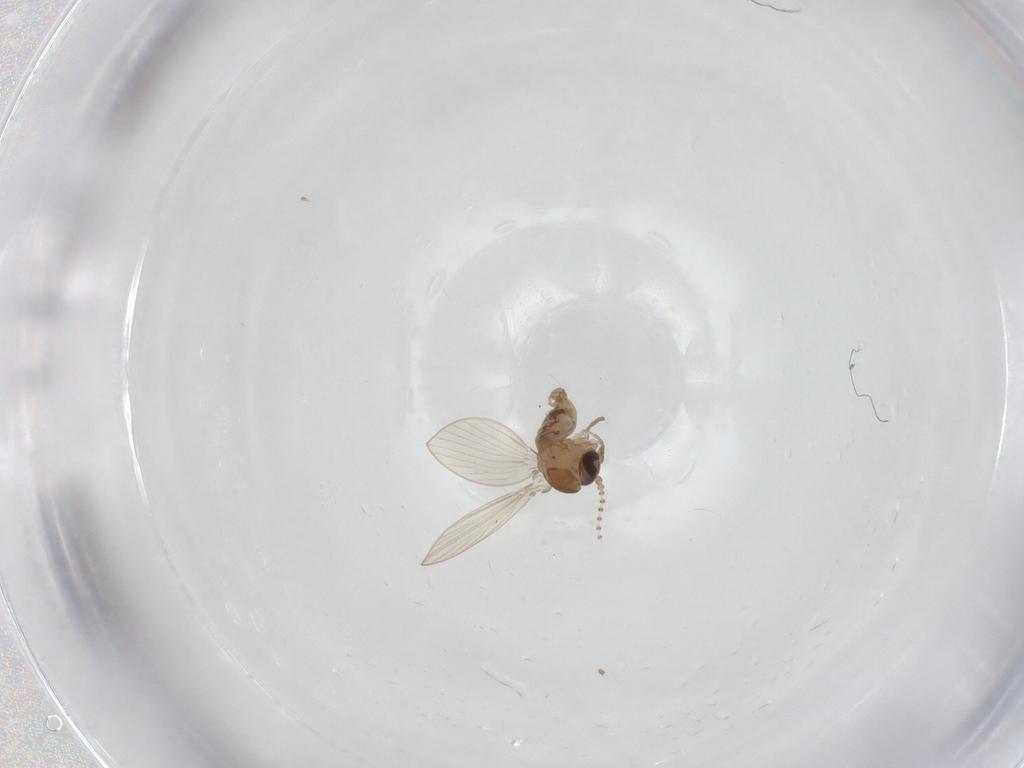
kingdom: Animalia
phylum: Arthropoda
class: Insecta
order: Diptera
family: Psychodidae
